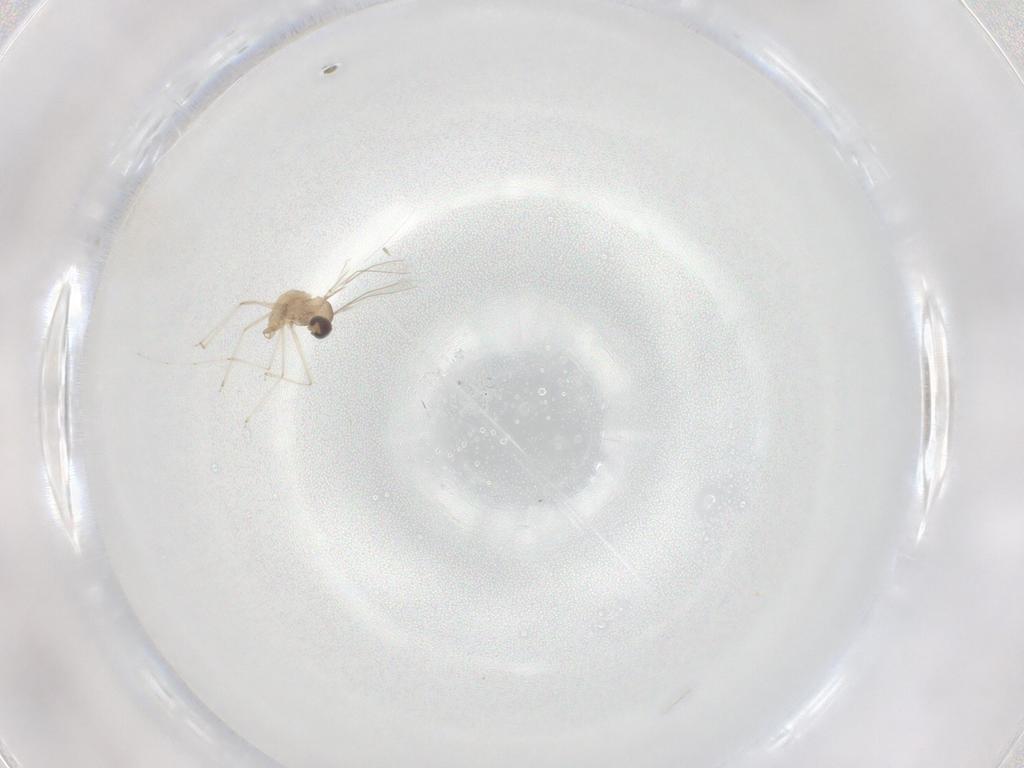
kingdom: Animalia
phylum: Arthropoda
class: Insecta
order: Diptera
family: Cecidomyiidae
